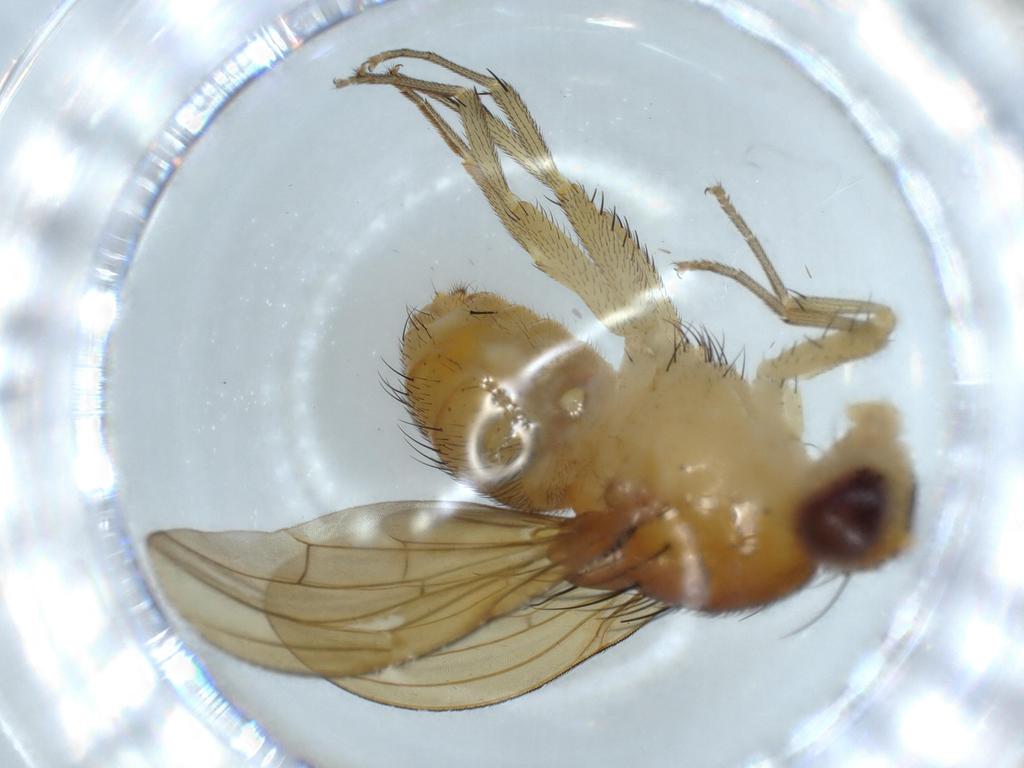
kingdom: Animalia
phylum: Arthropoda
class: Insecta
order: Diptera
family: Lauxaniidae
